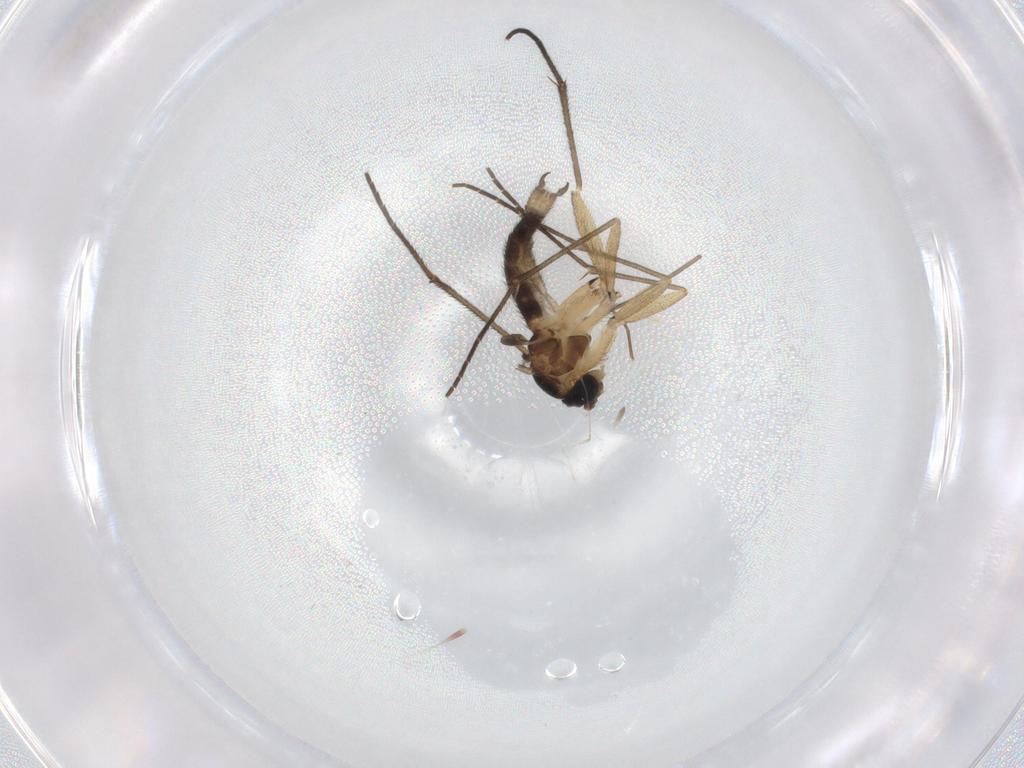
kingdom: Animalia
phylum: Arthropoda
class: Insecta
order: Diptera
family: Phoridae
